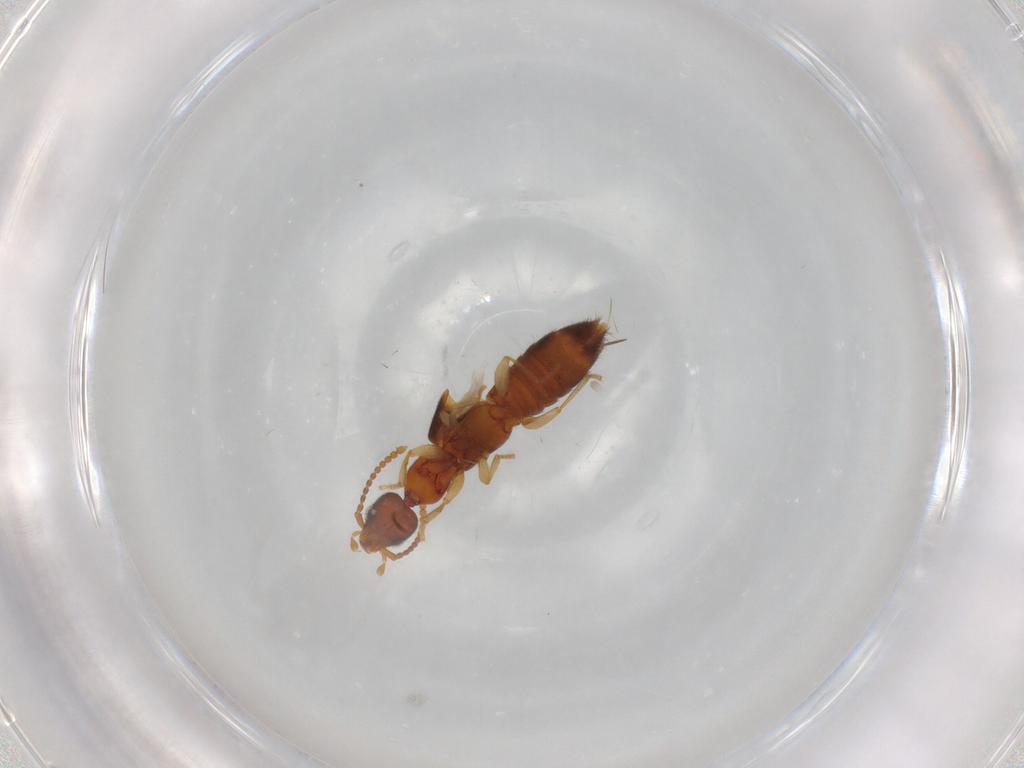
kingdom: Animalia
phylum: Arthropoda
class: Insecta
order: Coleoptera
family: Staphylinidae
